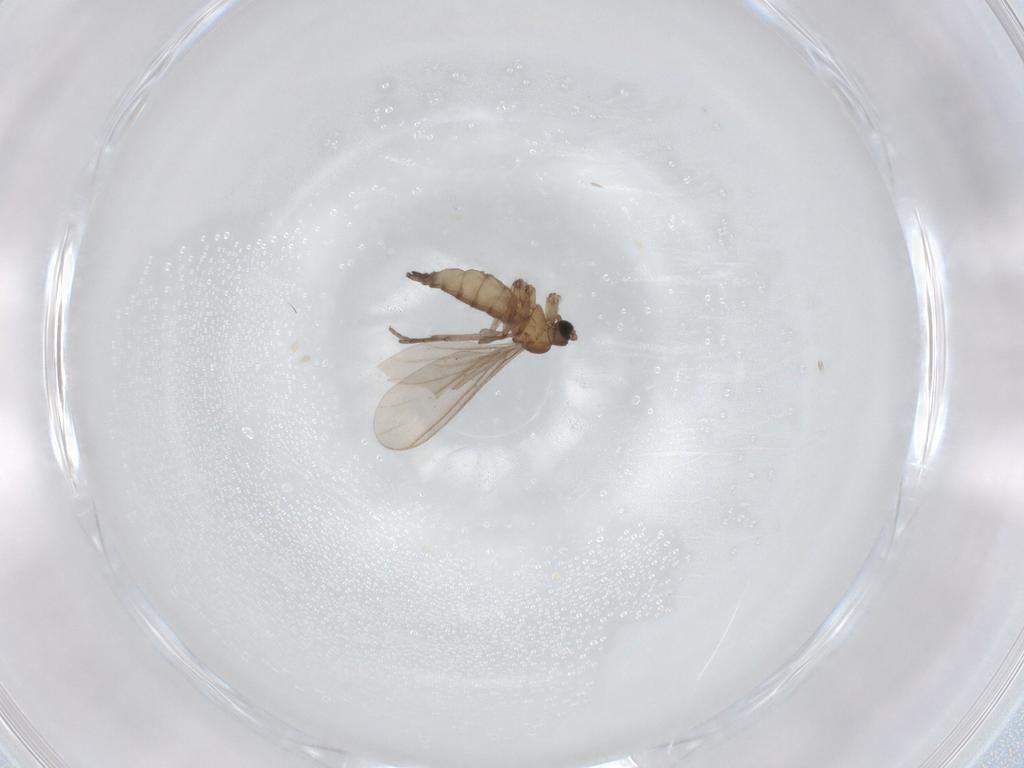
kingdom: Animalia
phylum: Arthropoda
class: Insecta
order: Diptera
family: Sciaridae
